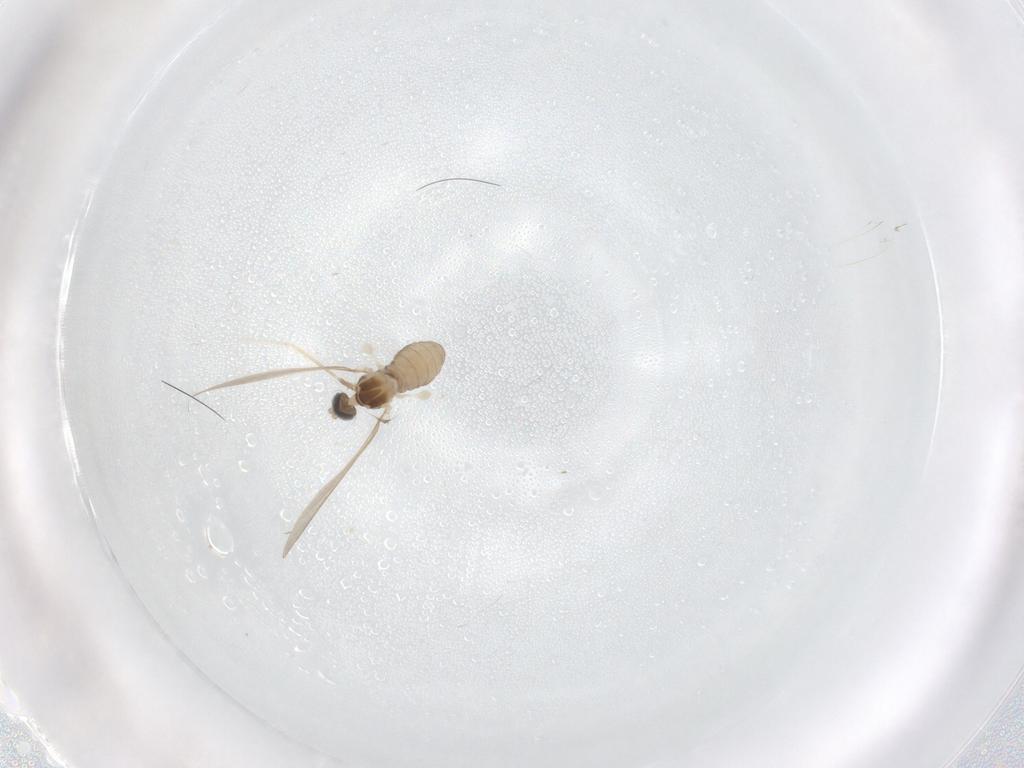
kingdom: Animalia
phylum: Arthropoda
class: Insecta
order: Diptera
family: Cecidomyiidae
